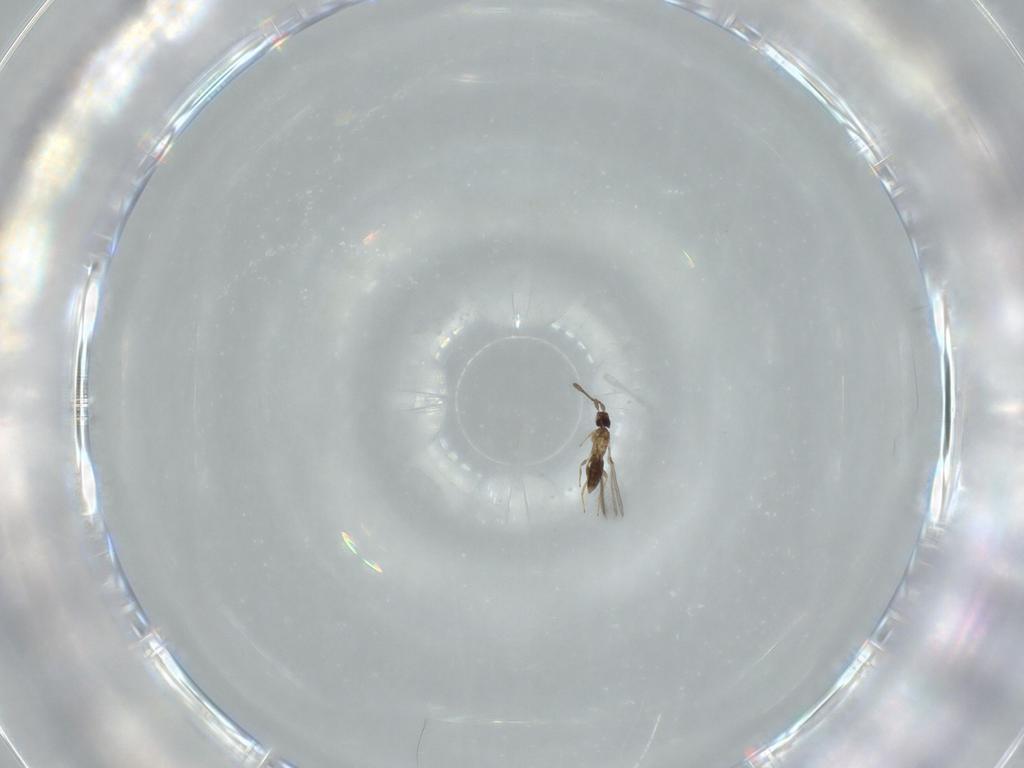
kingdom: Animalia
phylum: Arthropoda
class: Insecta
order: Hymenoptera
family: Mymaridae
